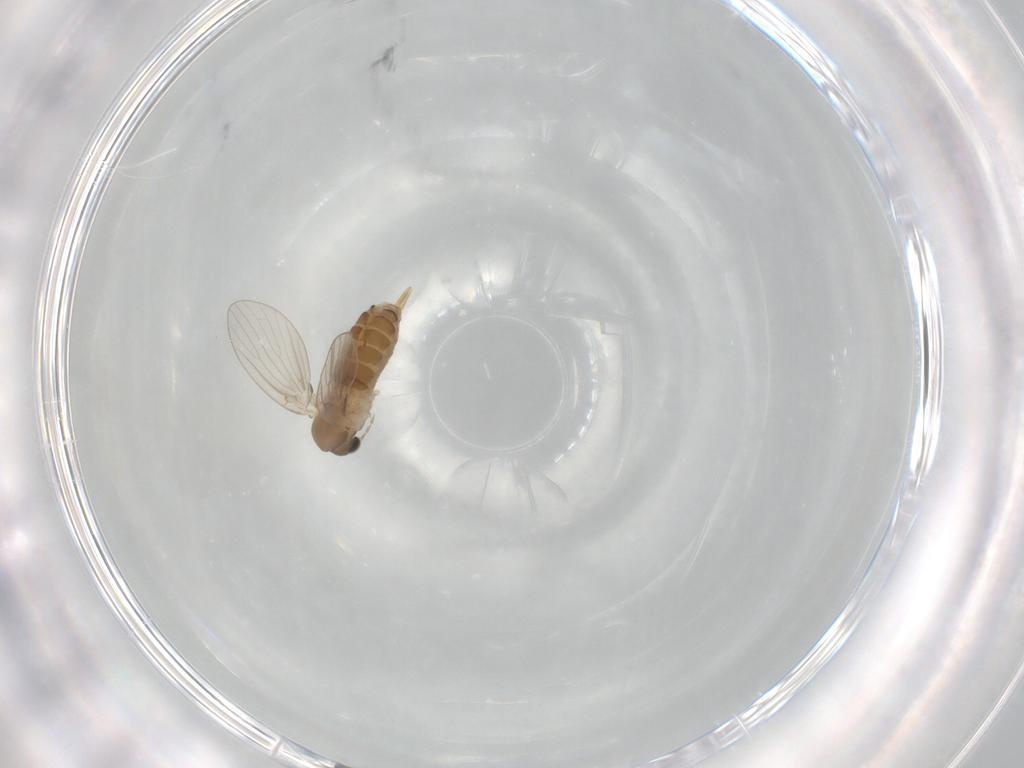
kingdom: Animalia
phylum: Arthropoda
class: Insecta
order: Diptera
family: Psychodidae
